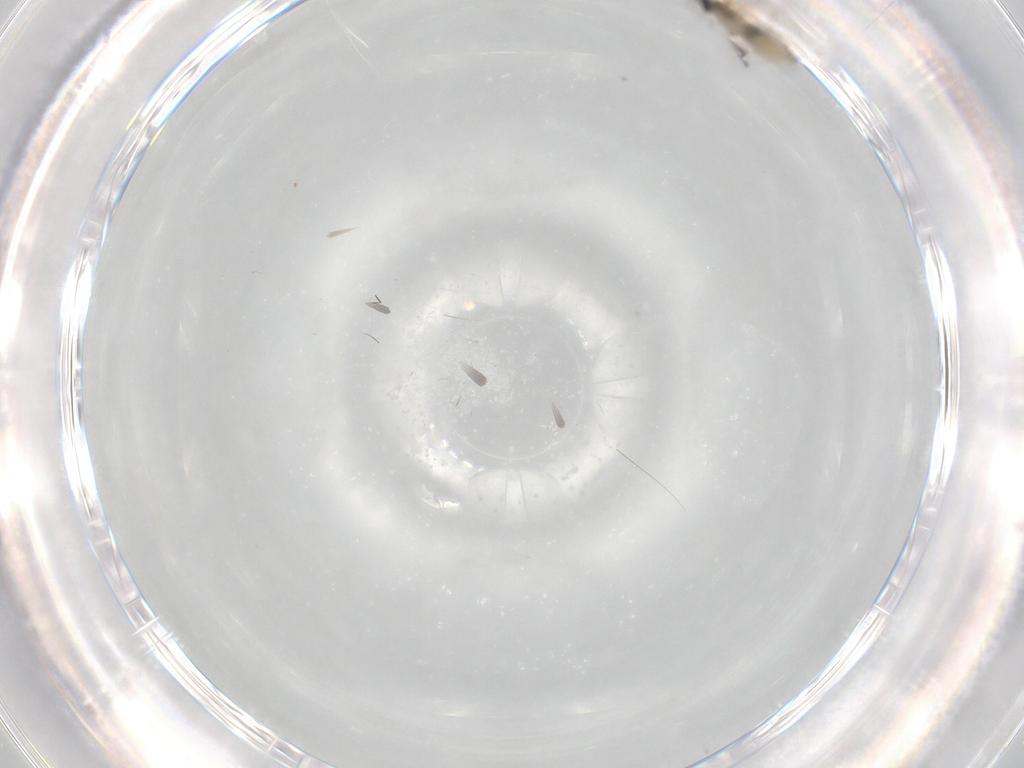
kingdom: Animalia
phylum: Arthropoda
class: Insecta
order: Diptera
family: Cecidomyiidae
